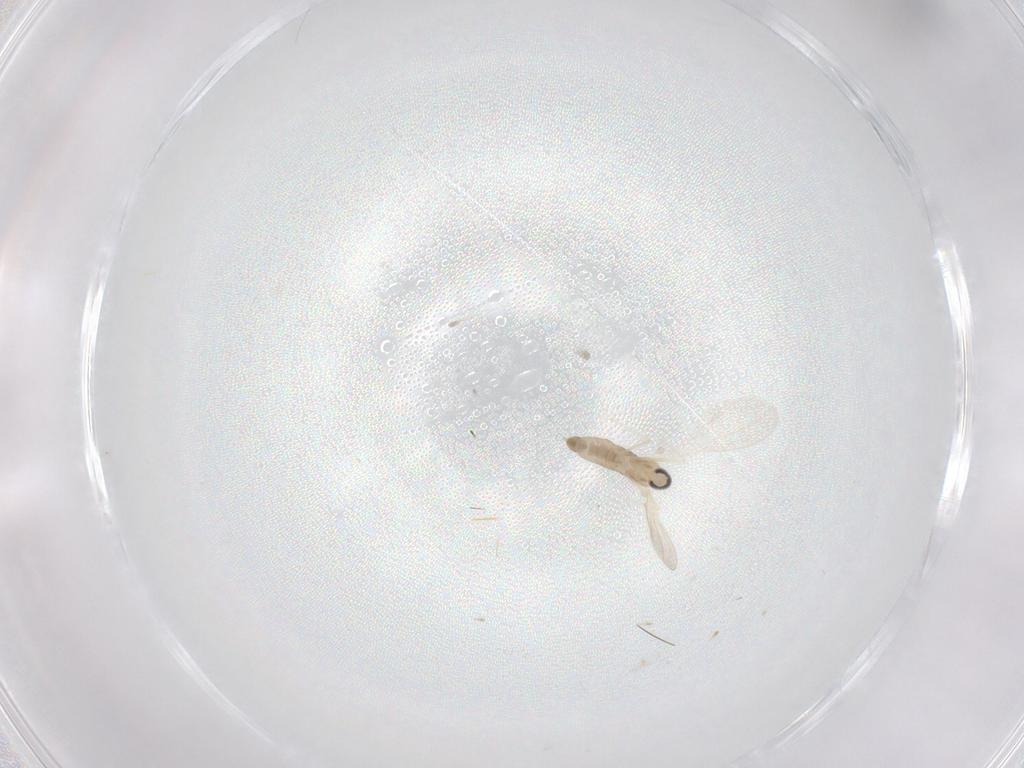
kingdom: Animalia
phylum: Arthropoda
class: Insecta
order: Diptera
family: Cecidomyiidae
